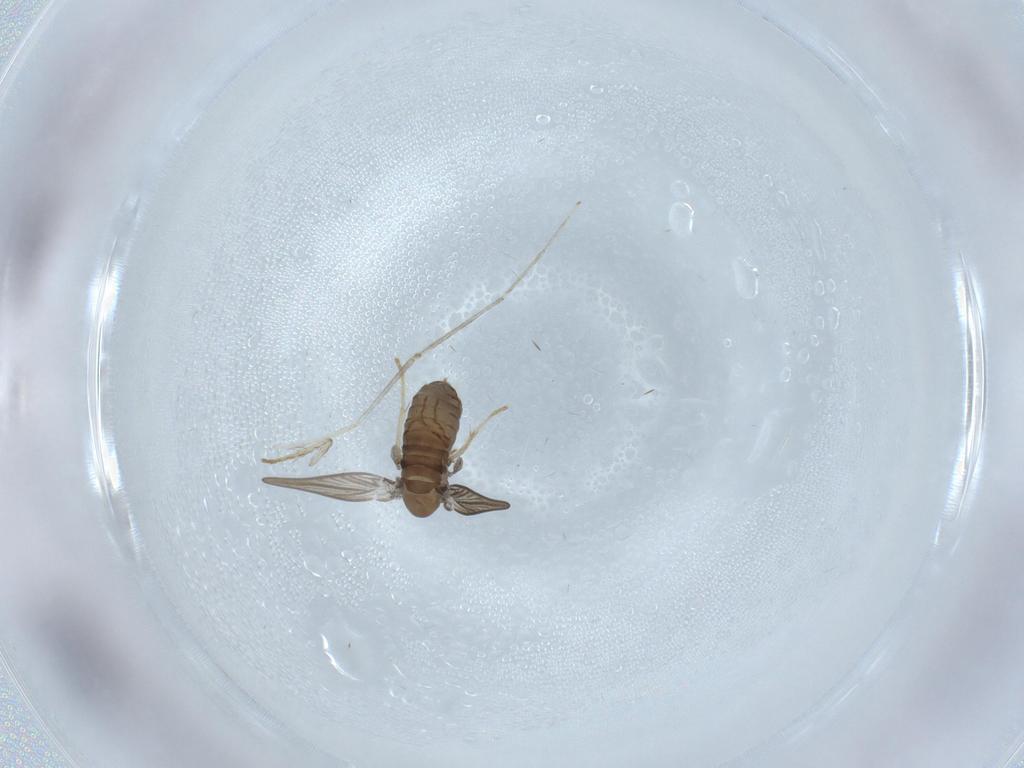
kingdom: Animalia
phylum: Arthropoda
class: Insecta
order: Diptera
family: Psychodidae
